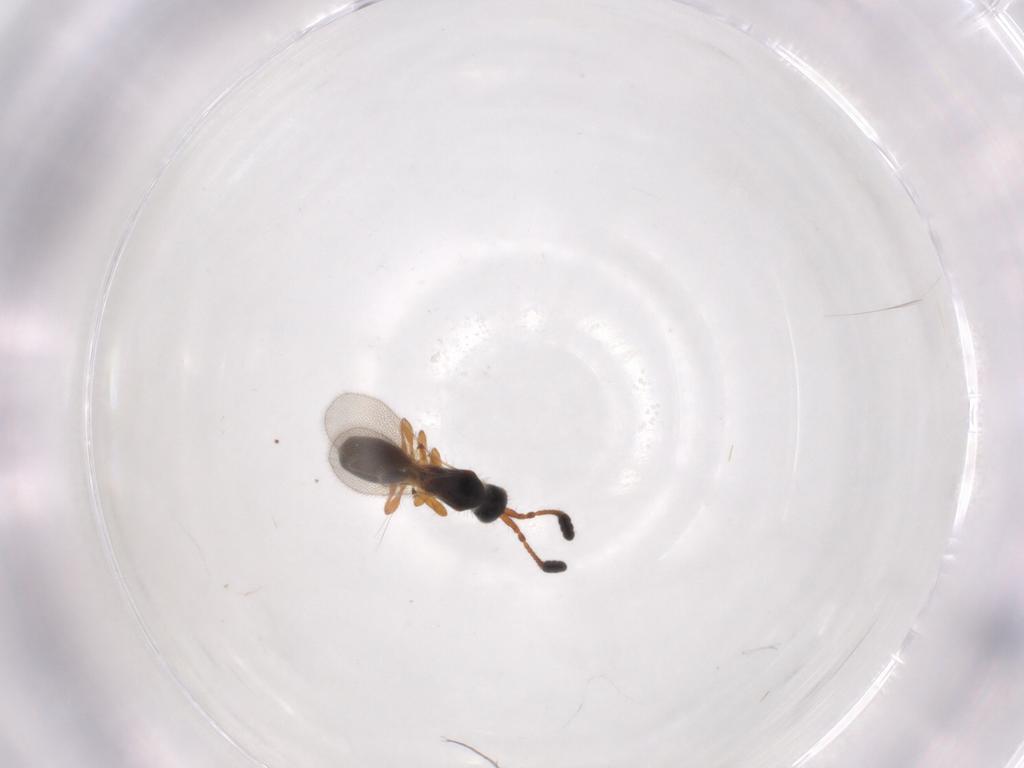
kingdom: Animalia
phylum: Arthropoda
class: Insecta
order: Hymenoptera
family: Diapriidae
